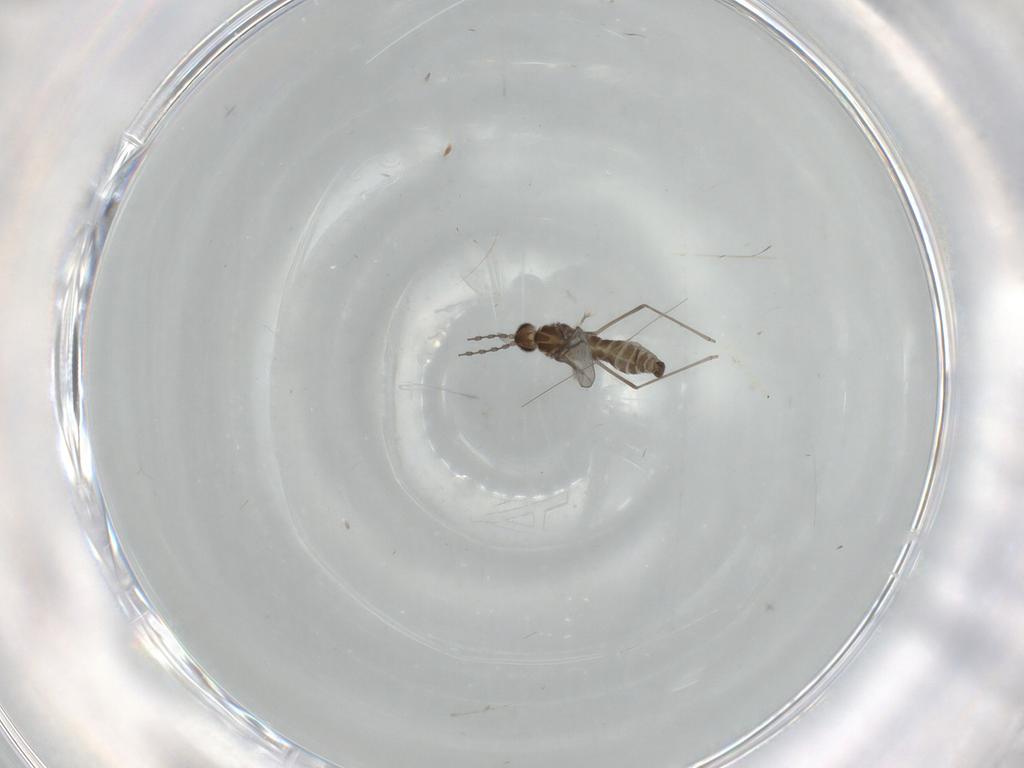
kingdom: Animalia
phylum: Arthropoda
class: Insecta
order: Diptera
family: Cecidomyiidae
